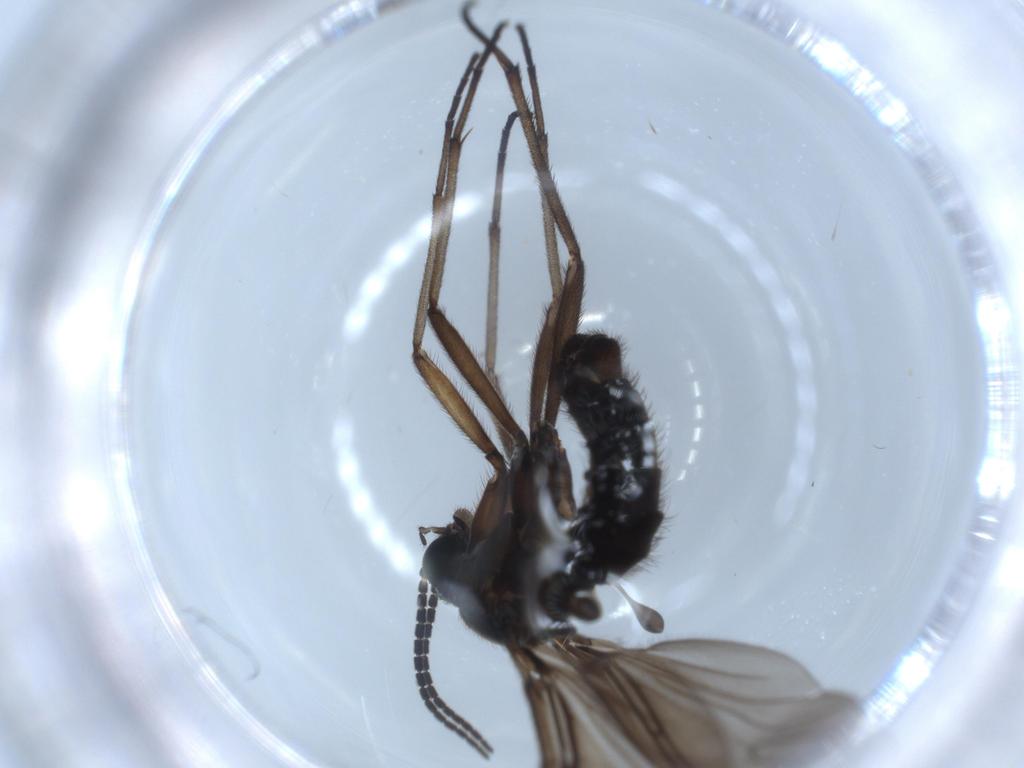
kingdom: Animalia
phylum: Arthropoda
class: Insecta
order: Diptera
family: Sciaridae
